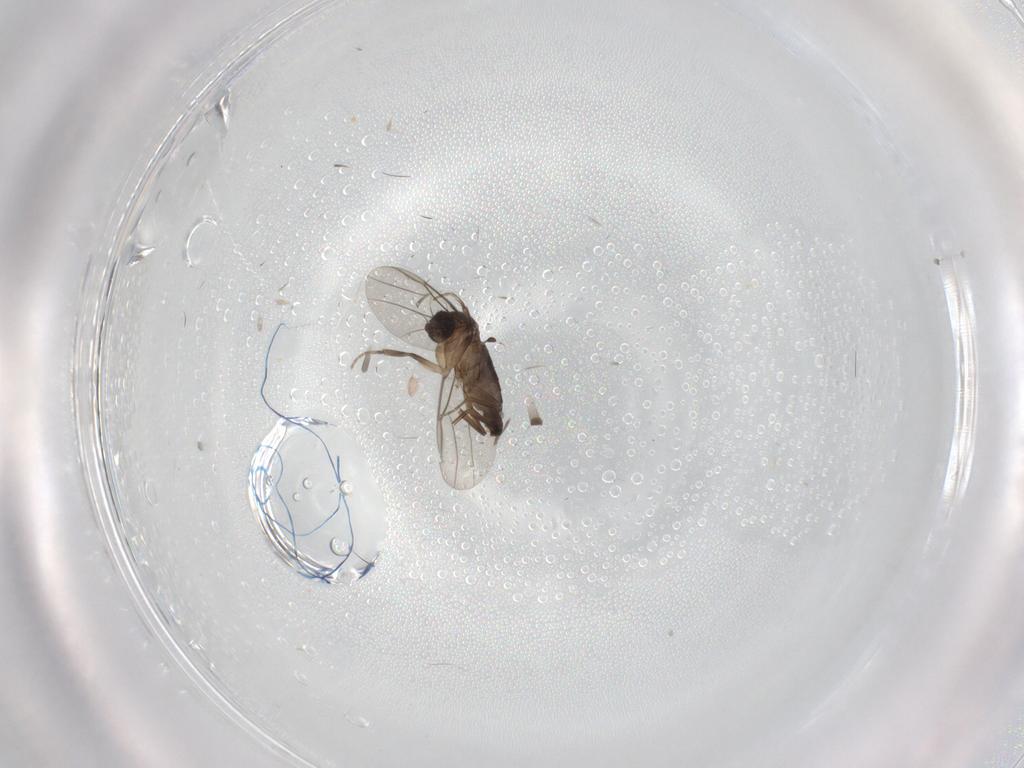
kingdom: Animalia
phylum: Arthropoda
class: Insecta
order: Diptera
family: Phoridae
